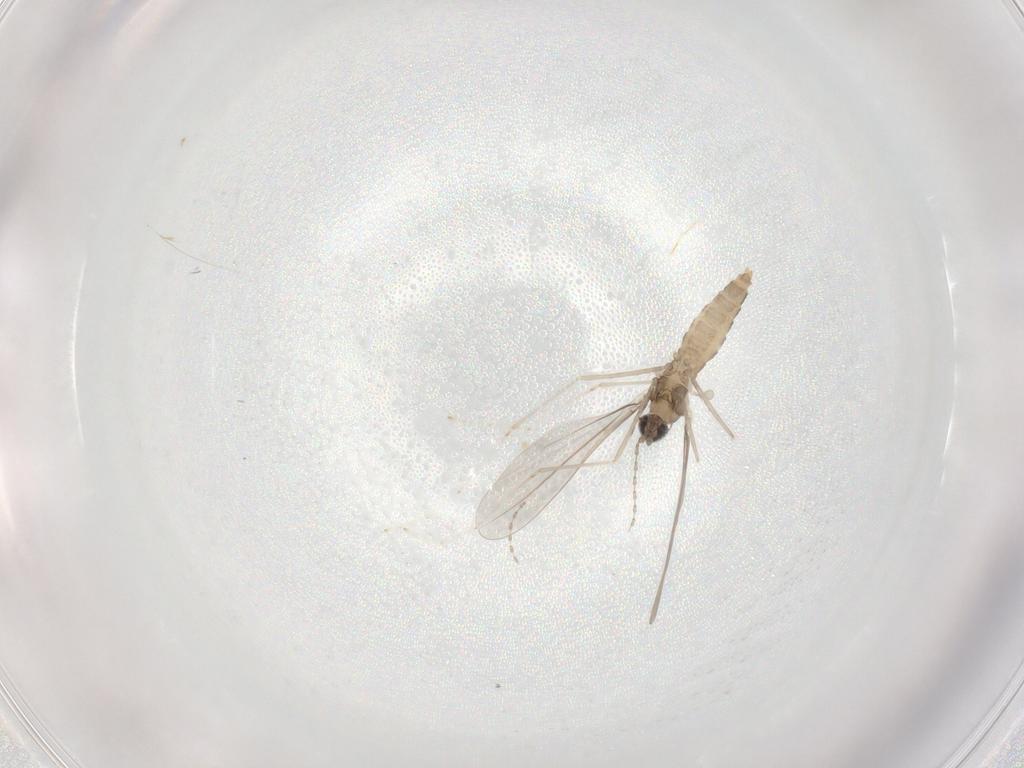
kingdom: Animalia
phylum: Arthropoda
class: Insecta
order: Diptera
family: Cecidomyiidae
